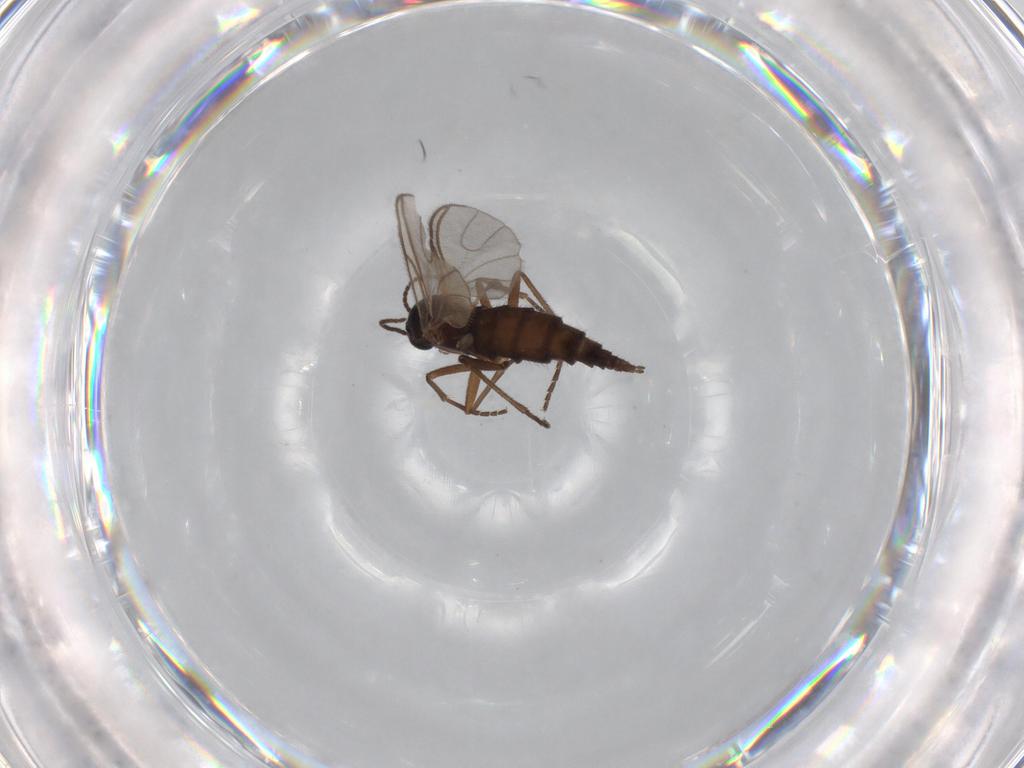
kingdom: Animalia
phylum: Arthropoda
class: Insecta
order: Diptera
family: Sciaridae
